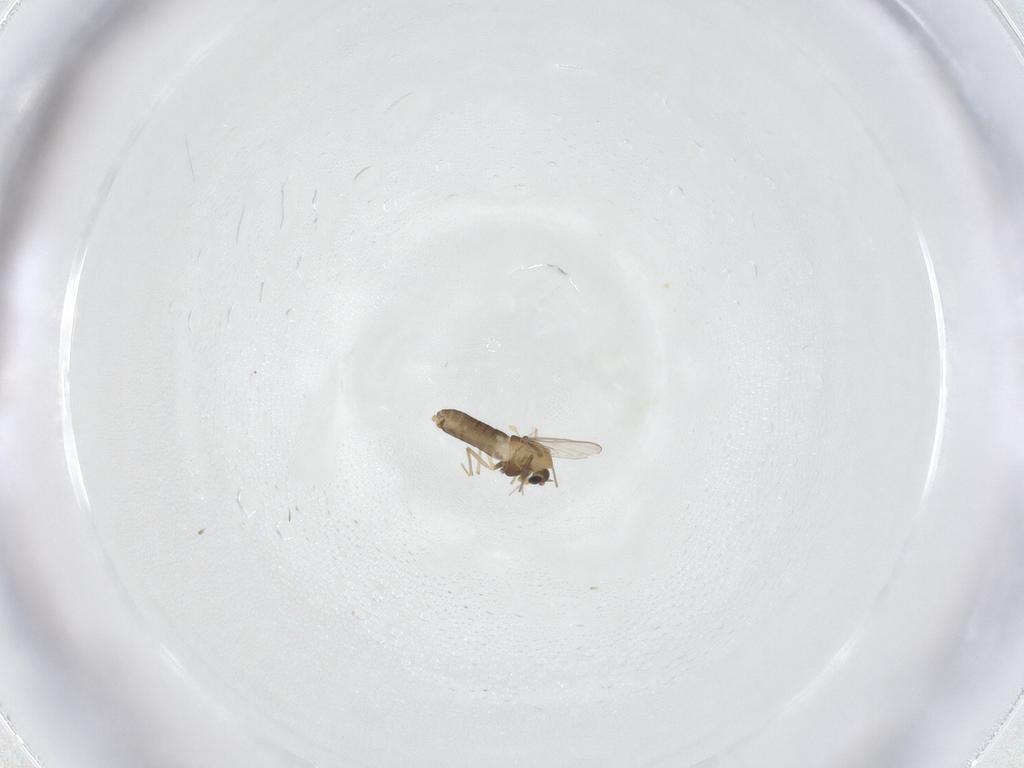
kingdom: Animalia
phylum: Arthropoda
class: Insecta
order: Diptera
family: Chironomidae
